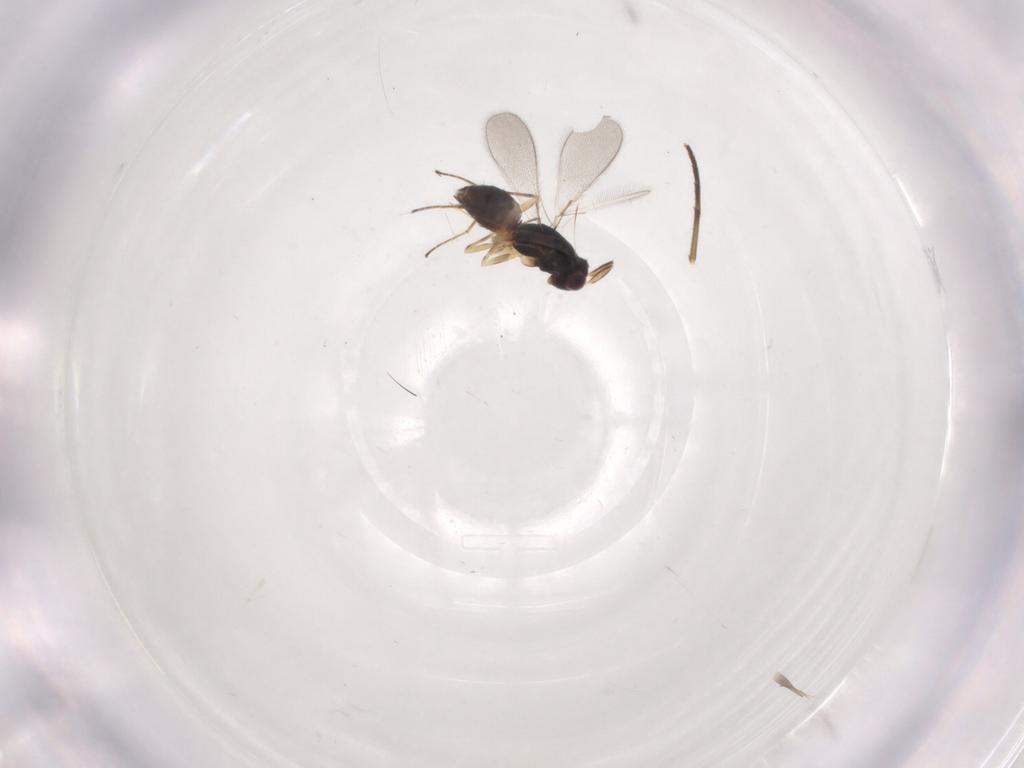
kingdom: Animalia
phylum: Arthropoda
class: Insecta
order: Hymenoptera
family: Mymaridae
